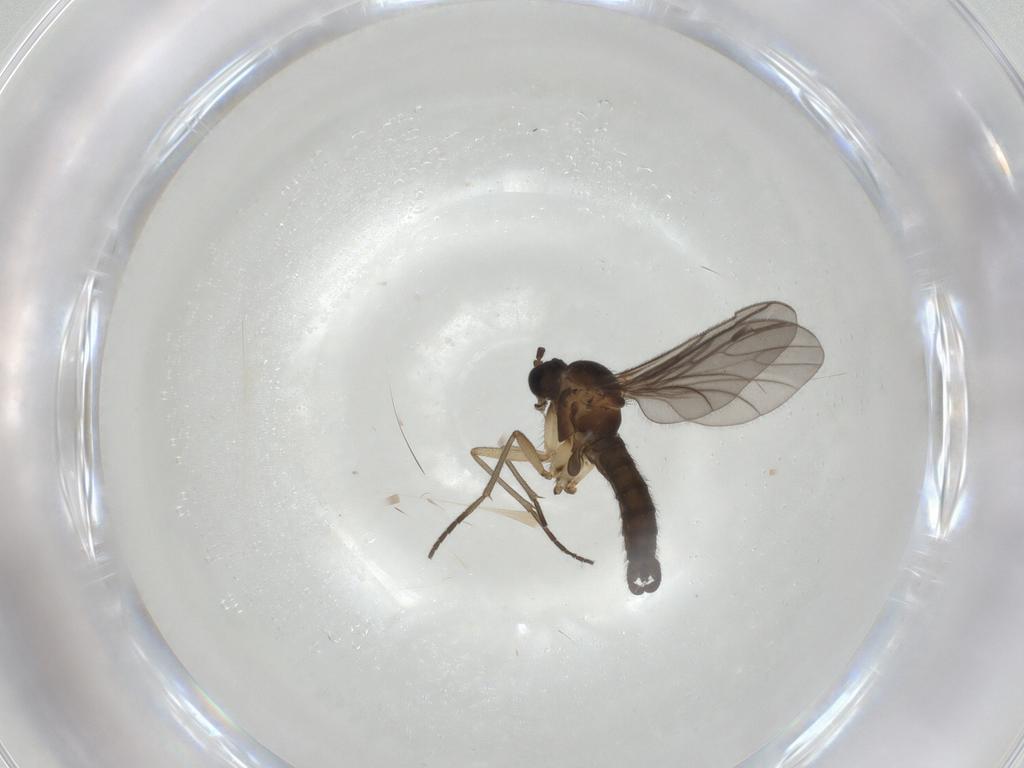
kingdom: Animalia
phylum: Arthropoda
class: Insecta
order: Diptera
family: Sciaridae
